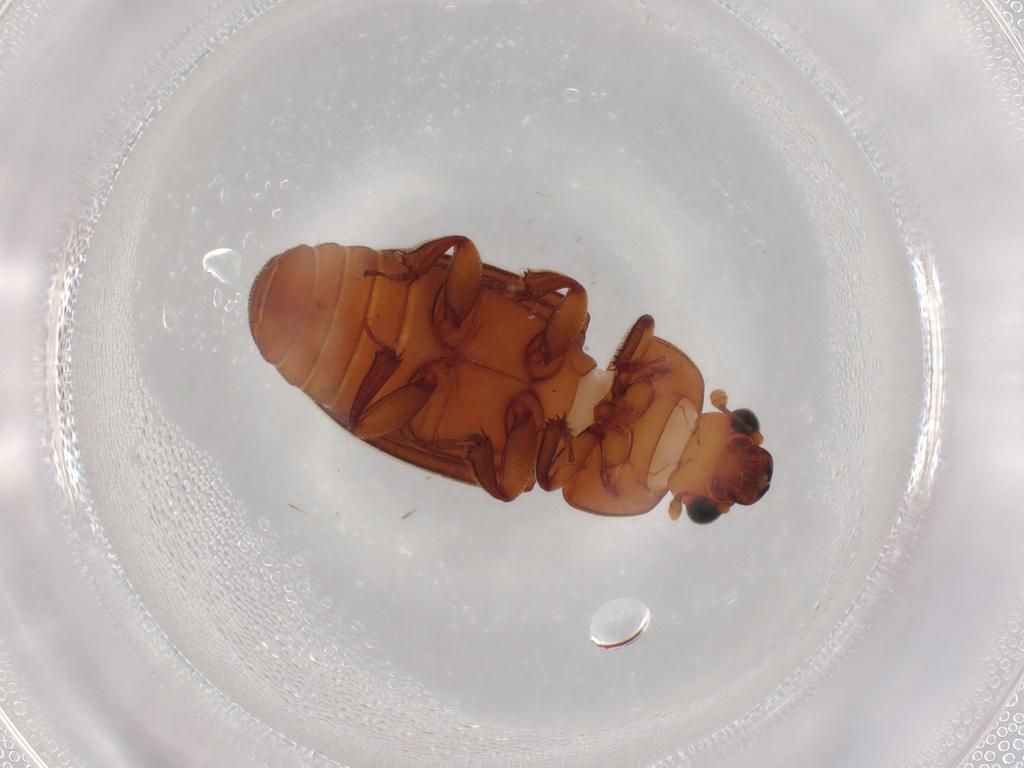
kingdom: Animalia
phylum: Arthropoda
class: Insecta
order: Coleoptera
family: Nitidulidae
